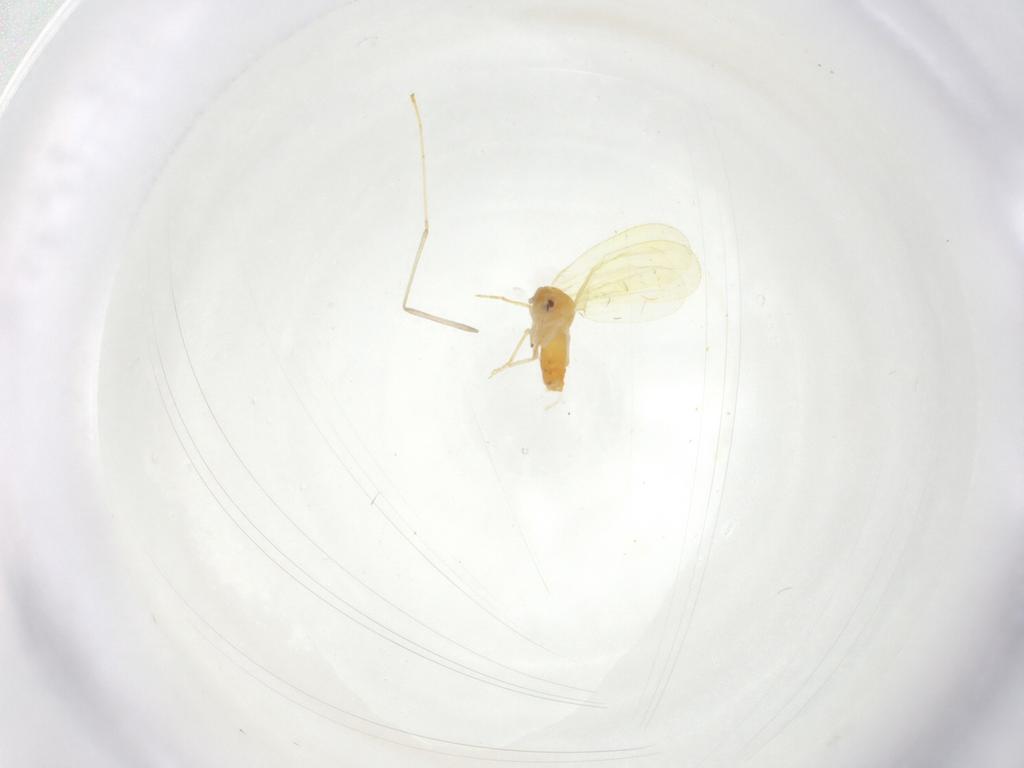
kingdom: Animalia
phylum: Arthropoda
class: Insecta
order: Hemiptera
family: Aleyrodidae
